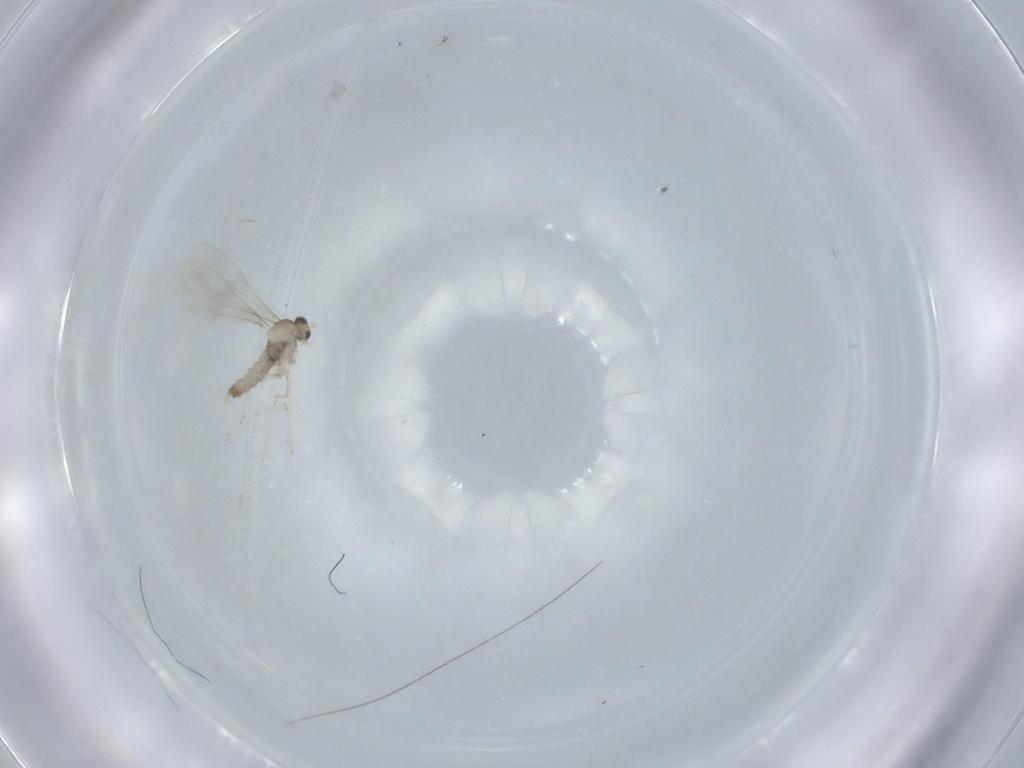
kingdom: Animalia
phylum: Arthropoda
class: Insecta
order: Diptera
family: Cecidomyiidae
